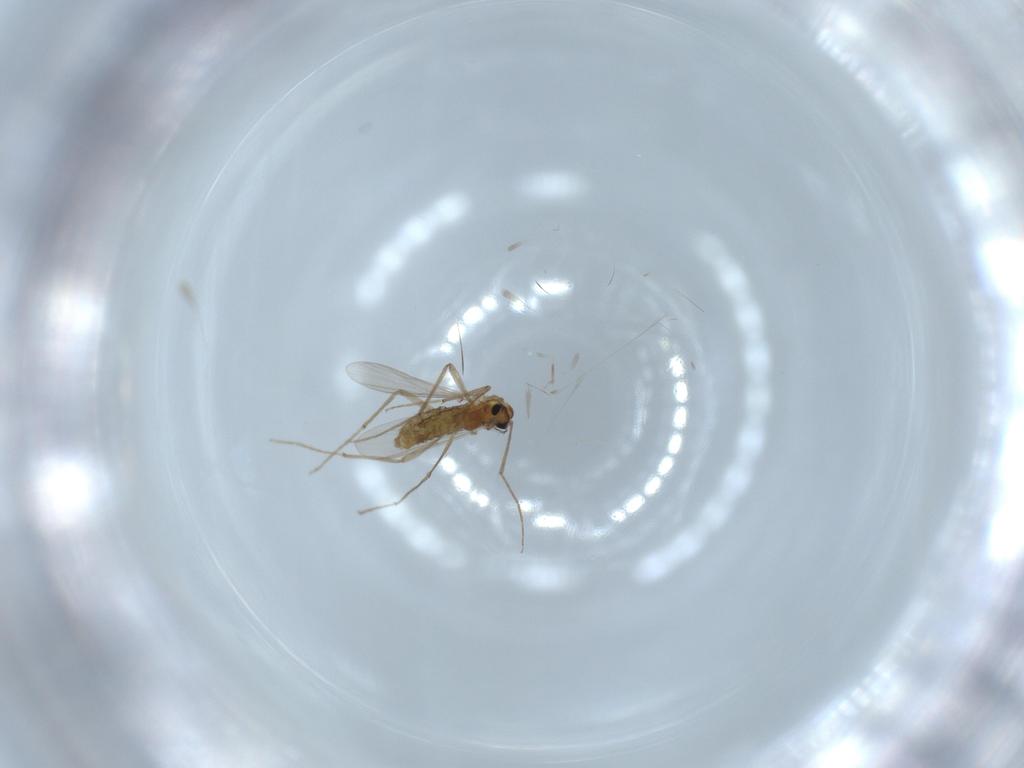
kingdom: Animalia
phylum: Arthropoda
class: Insecta
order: Diptera
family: Chironomidae
